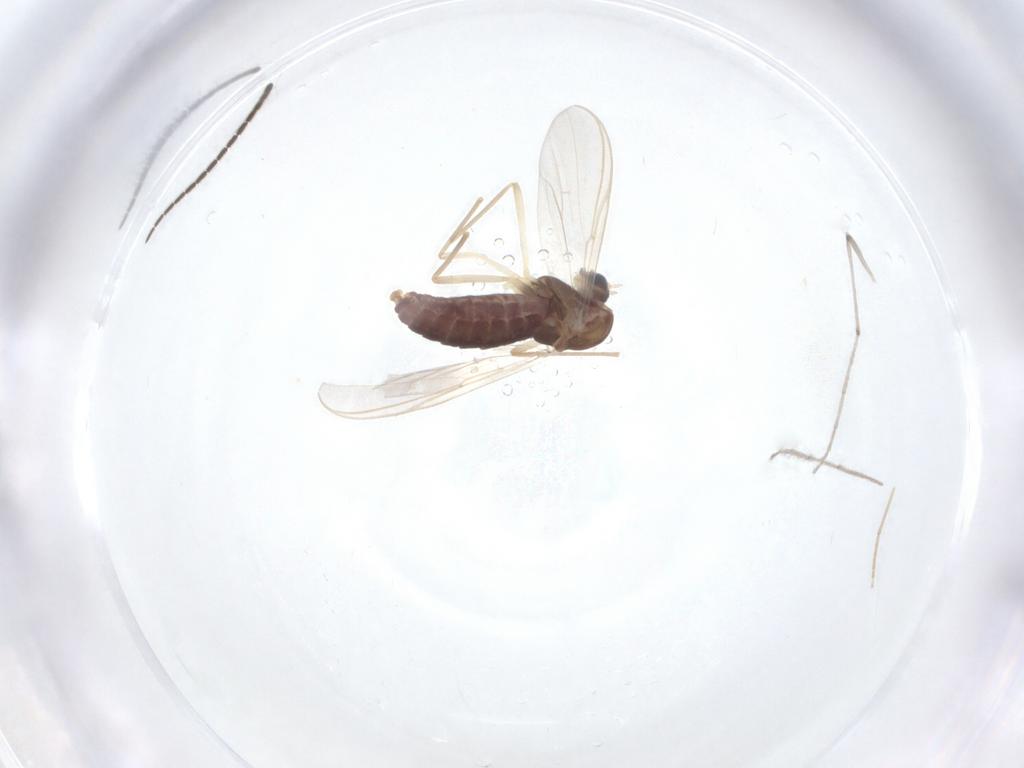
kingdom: Animalia
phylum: Arthropoda
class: Insecta
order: Diptera
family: Chironomidae
